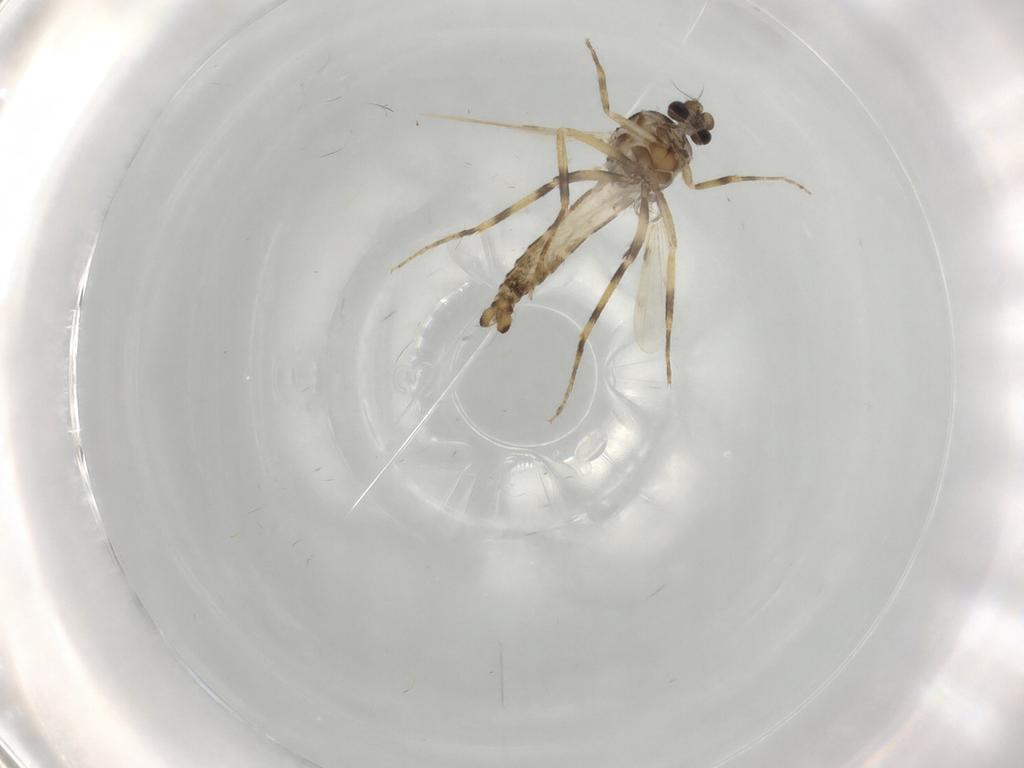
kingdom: Animalia
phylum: Arthropoda
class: Insecta
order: Diptera
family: Ceratopogonidae
